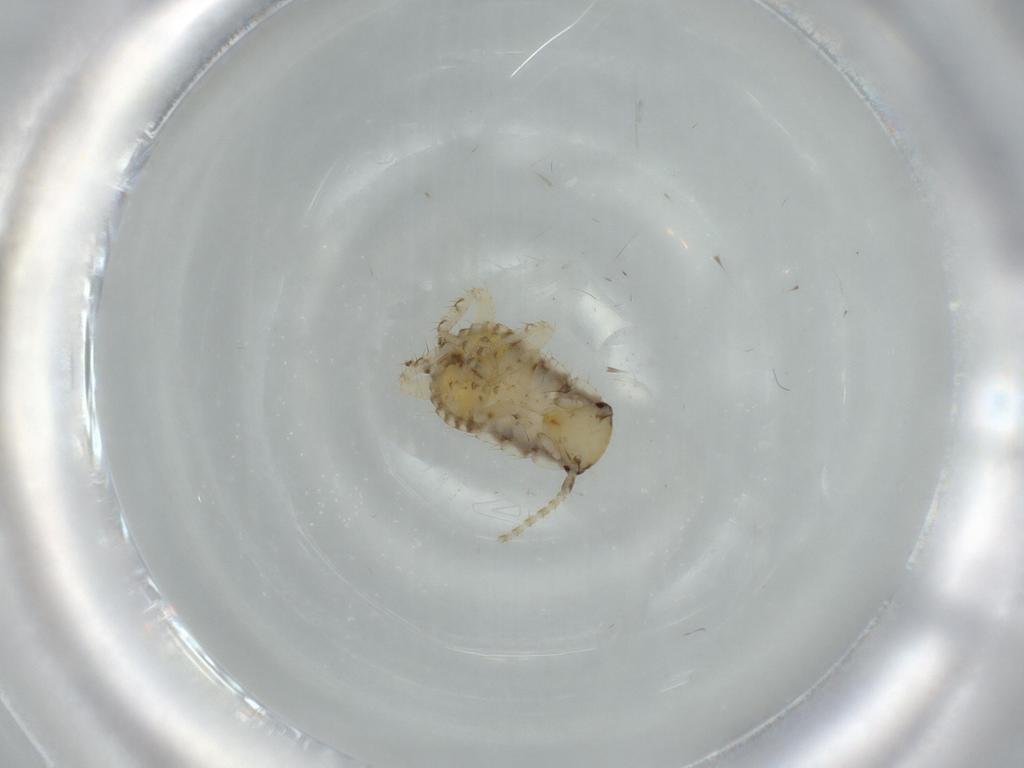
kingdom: Animalia
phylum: Arthropoda
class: Insecta
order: Blattodea
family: Ectobiidae
